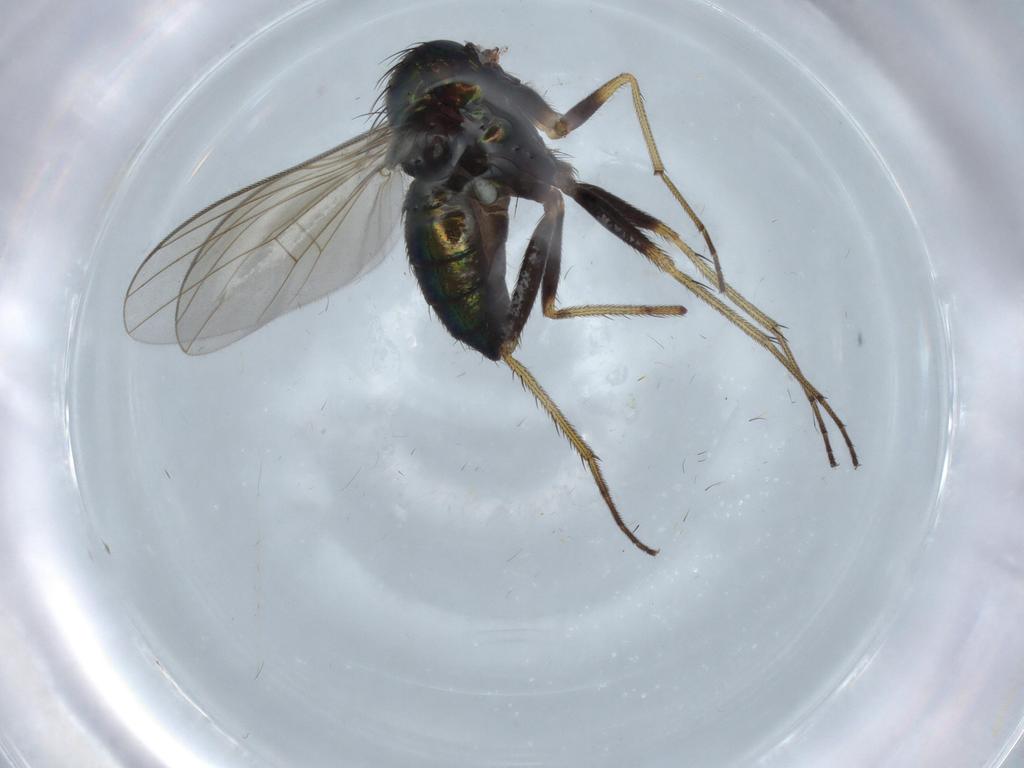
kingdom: Animalia
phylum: Arthropoda
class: Insecta
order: Diptera
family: Dolichopodidae
